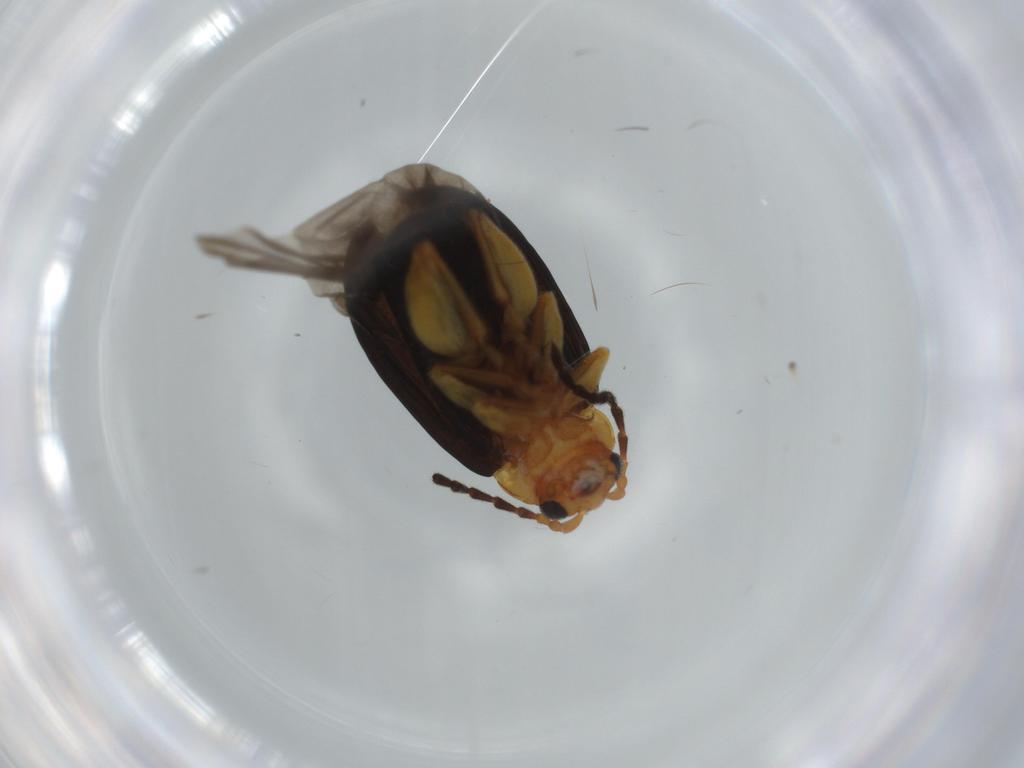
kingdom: Animalia
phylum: Arthropoda
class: Insecta
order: Coleoptera
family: Chrysomelidae
